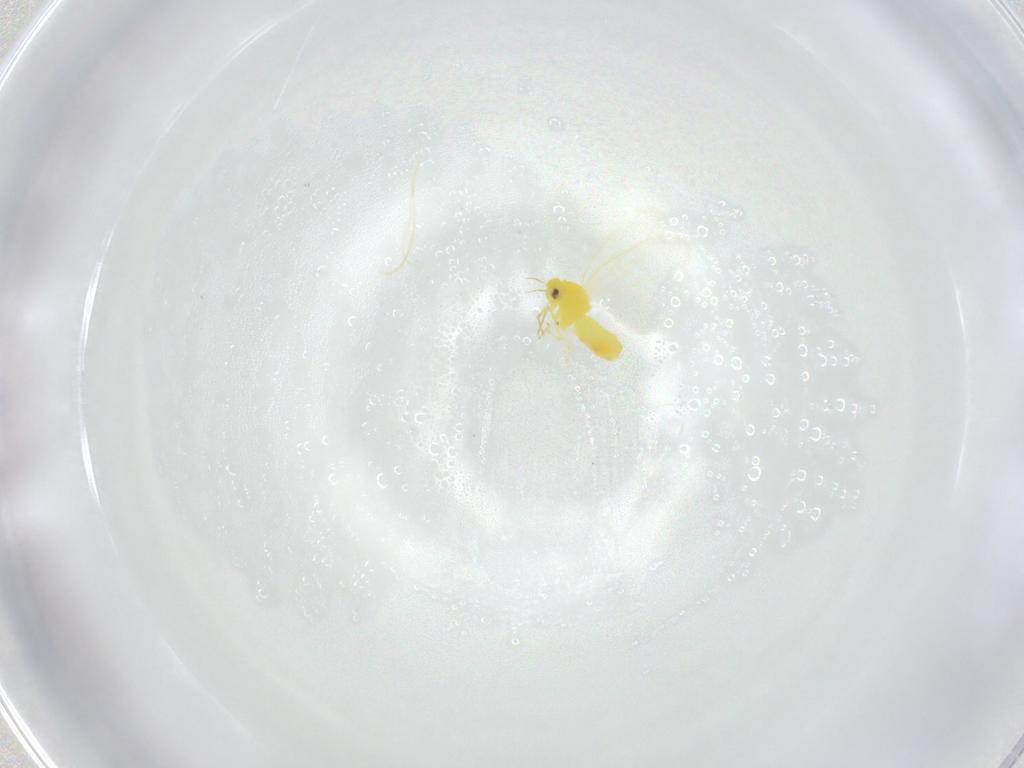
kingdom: Animalia
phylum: Arthropoda
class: Insecta
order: Hemiptera
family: Aleyrodidae
